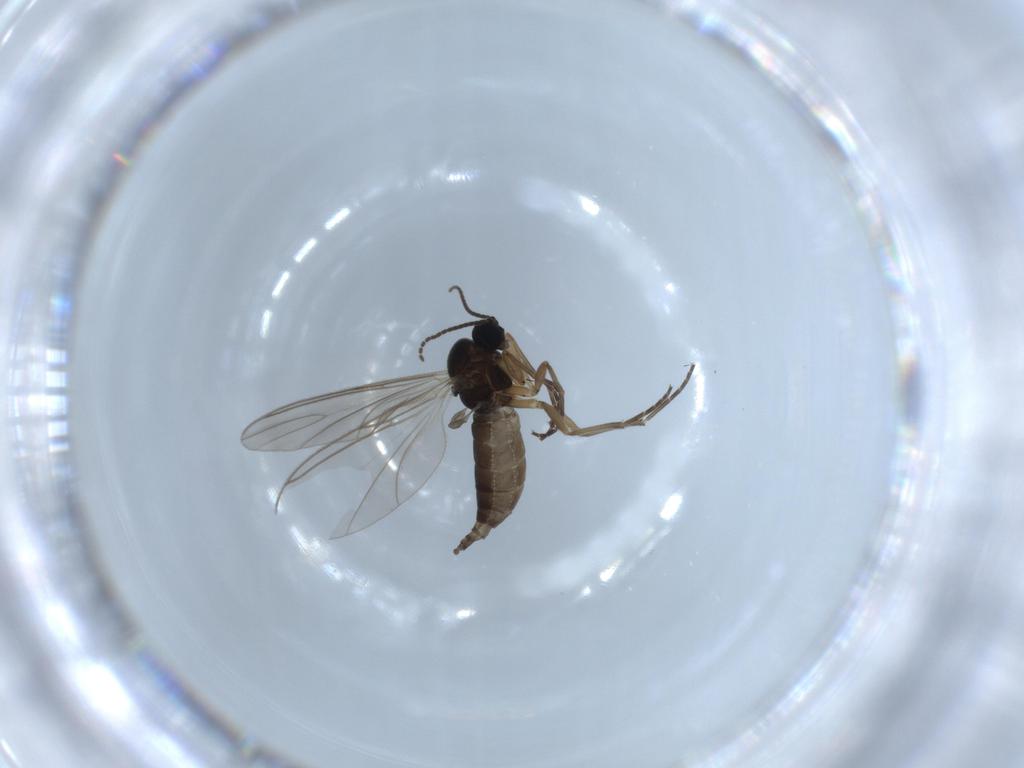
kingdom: Animalia
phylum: Arthropoda
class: Insecta
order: Diptera
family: Sciaridae
